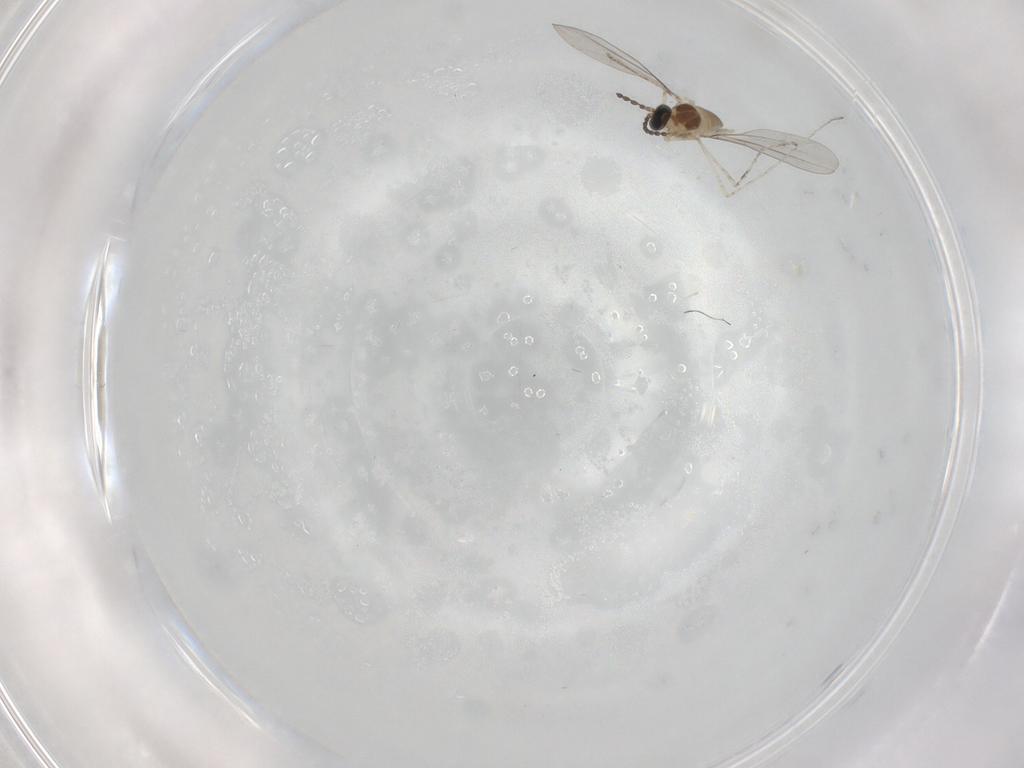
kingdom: Animalia
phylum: Arthropoda
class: Insecta
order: Diptera
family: Cecidomyiidae
